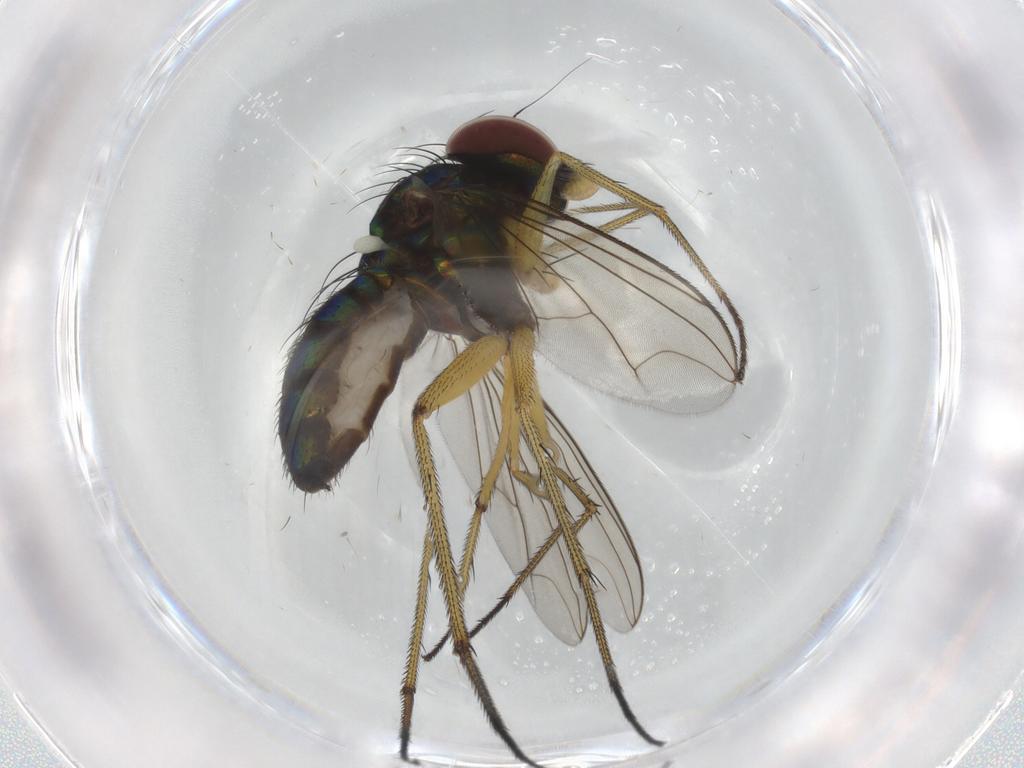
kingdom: Animalia
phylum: Arthropoda
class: Insecta
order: Diptera
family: Dolichopodidae
